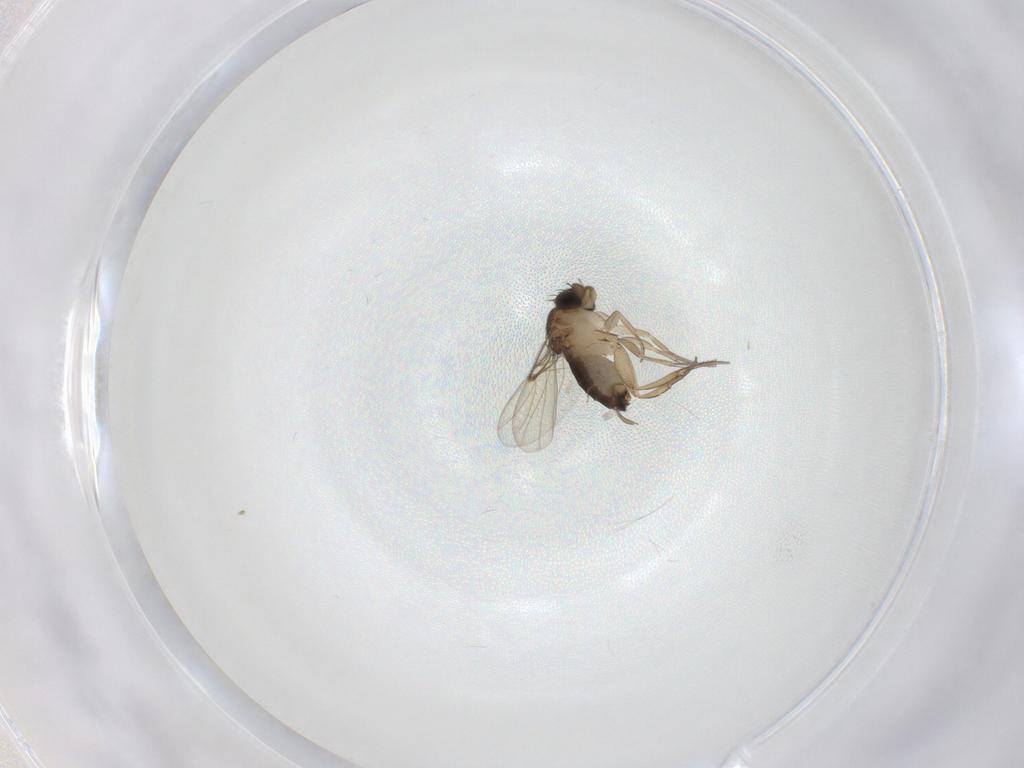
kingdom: Animalia
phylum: Arthropoda
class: Insecta
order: Diptera
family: Phoridae
